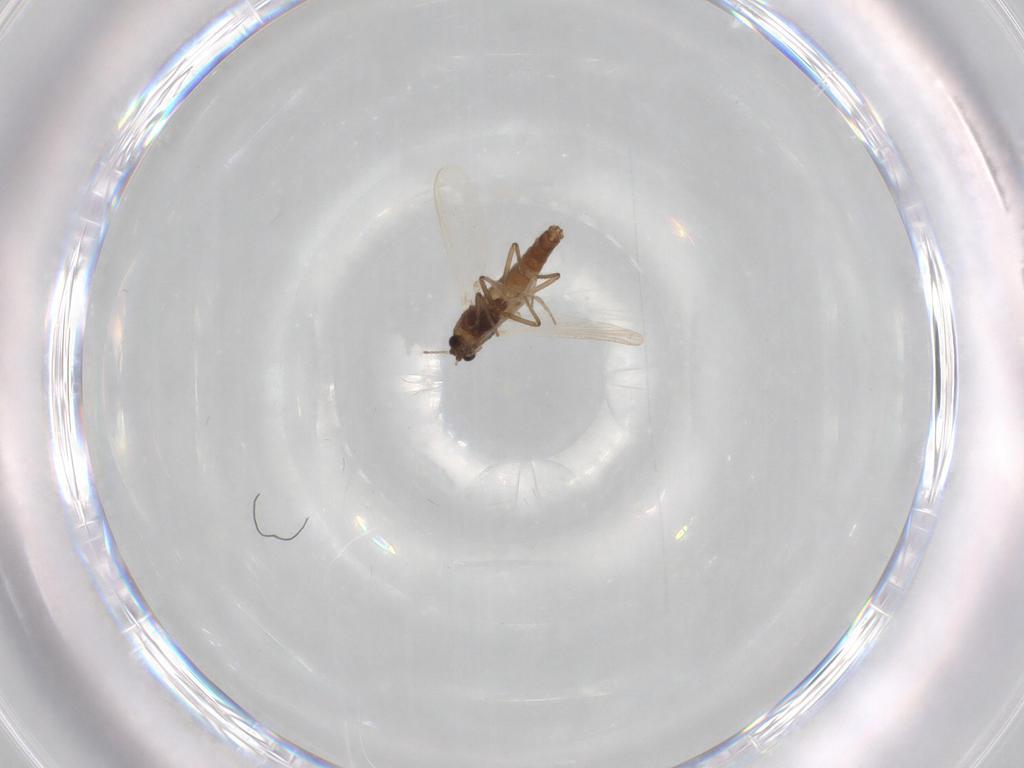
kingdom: Animalia
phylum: Arthropoda
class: Insecta
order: Diptera
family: Chironomidae
